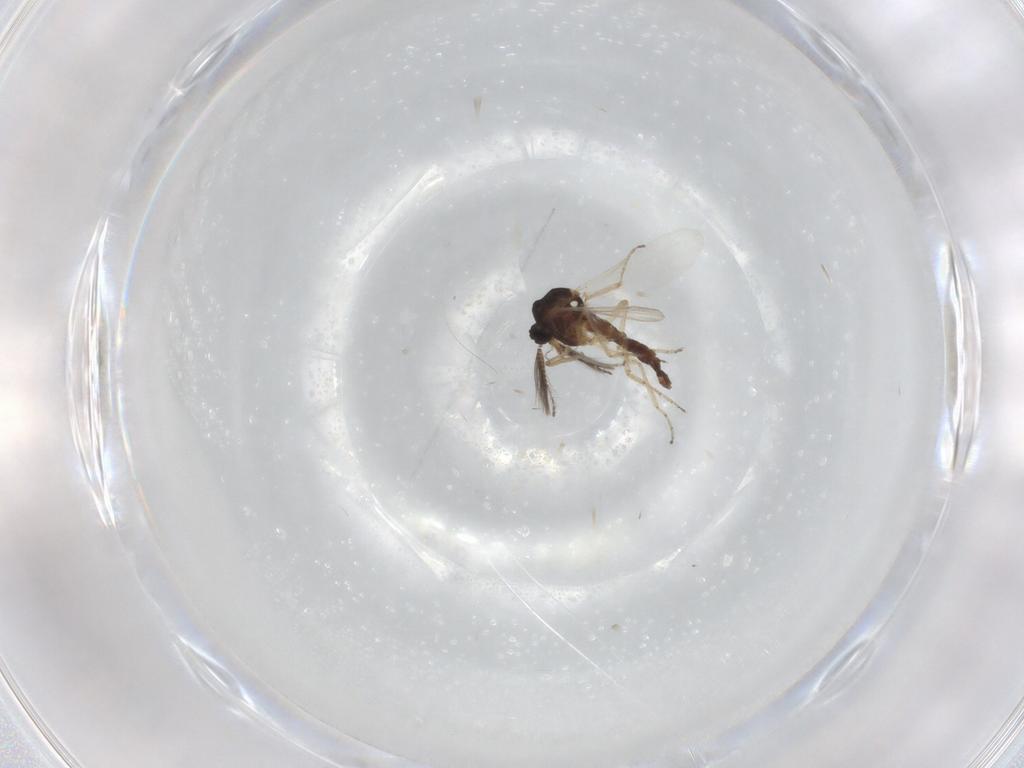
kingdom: Animalia
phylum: Arthropoda
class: Insecta
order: Diptera
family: Ceratopogonidae
